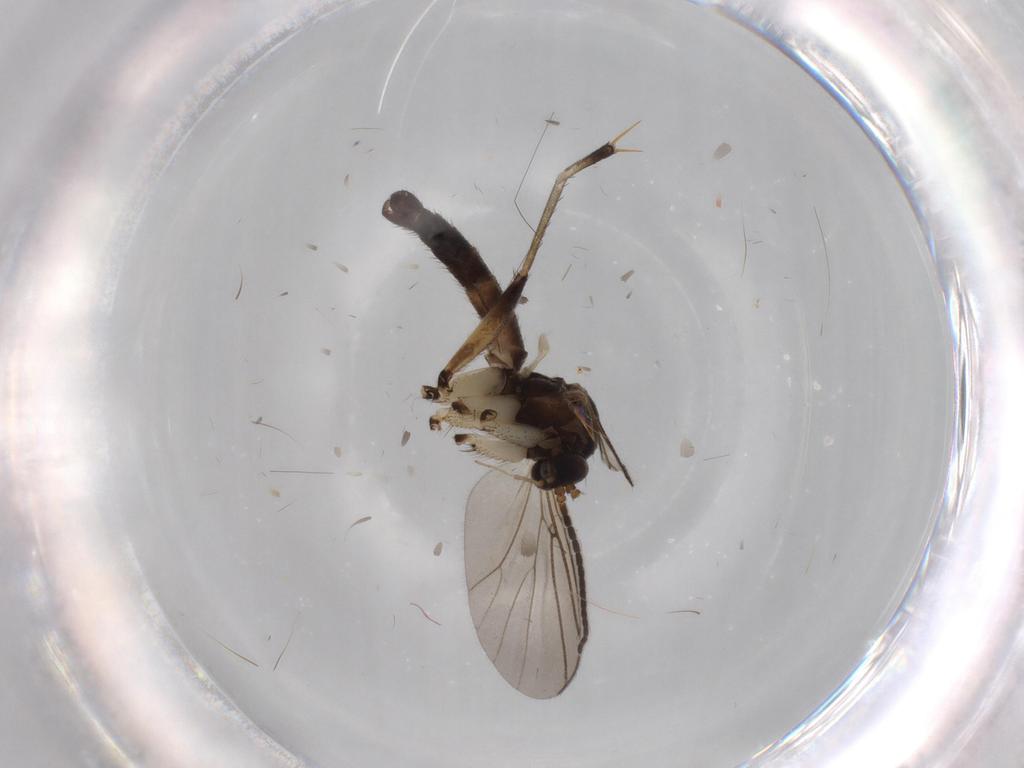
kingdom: Animalia
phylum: Arthropoda
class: Insecta
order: Diptera
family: Mycetophilidae
